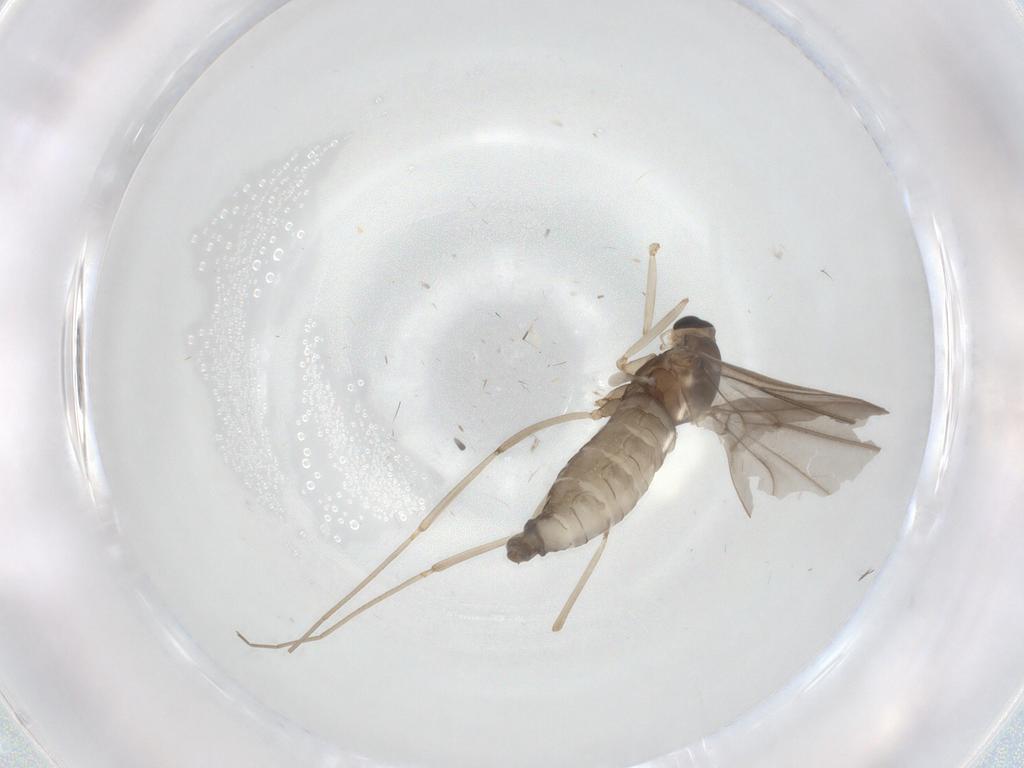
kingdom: Animalia
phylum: Arthropoda
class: Insecta
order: Diptera
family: Cecidomyiidae
